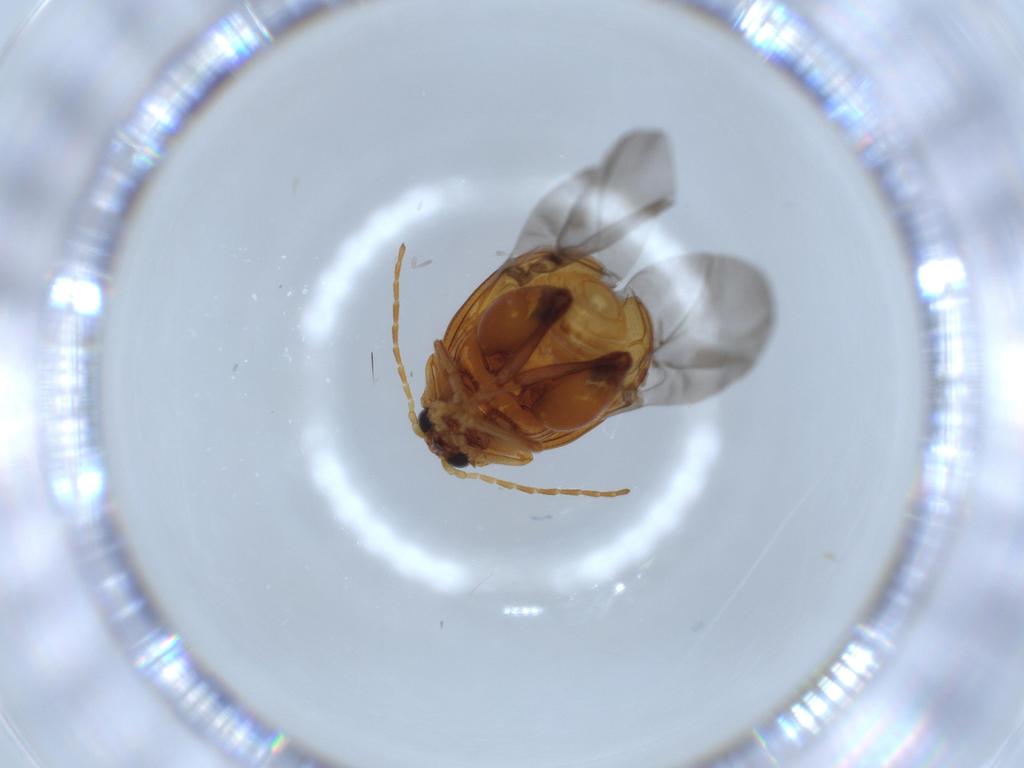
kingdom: Animalia
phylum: Arthropoda
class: Insecta
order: Coleoptera
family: Chrysomelidae
